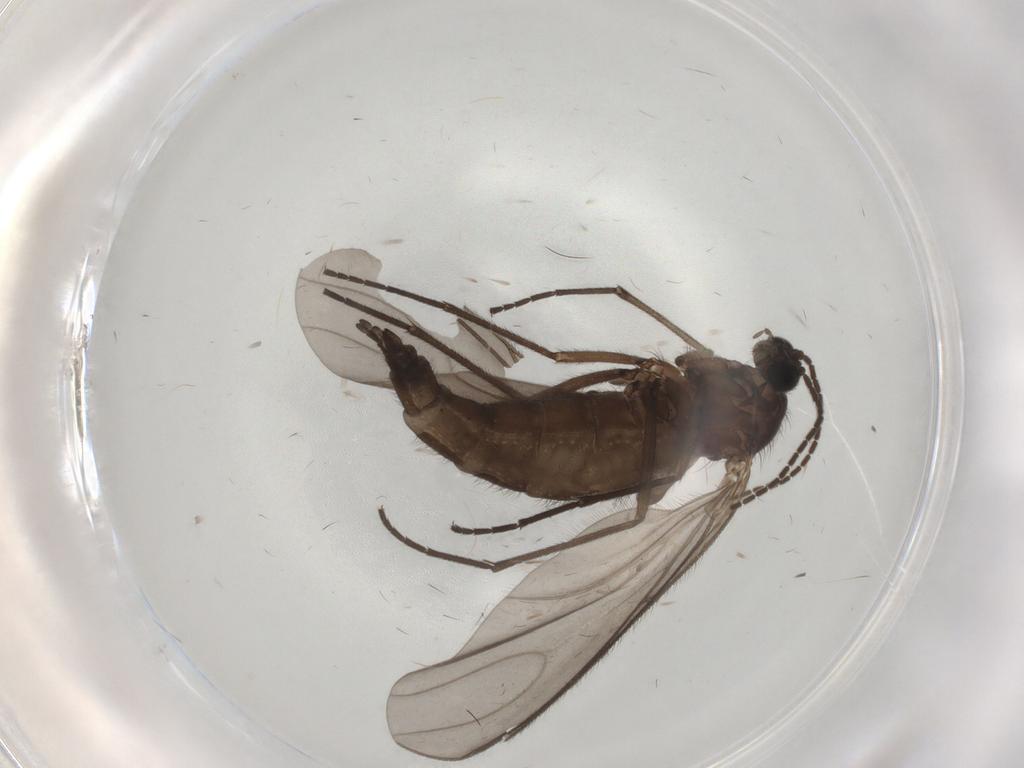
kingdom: Animalia
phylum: Arthropoda
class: Insecta
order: Diptera
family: Sciaridae
